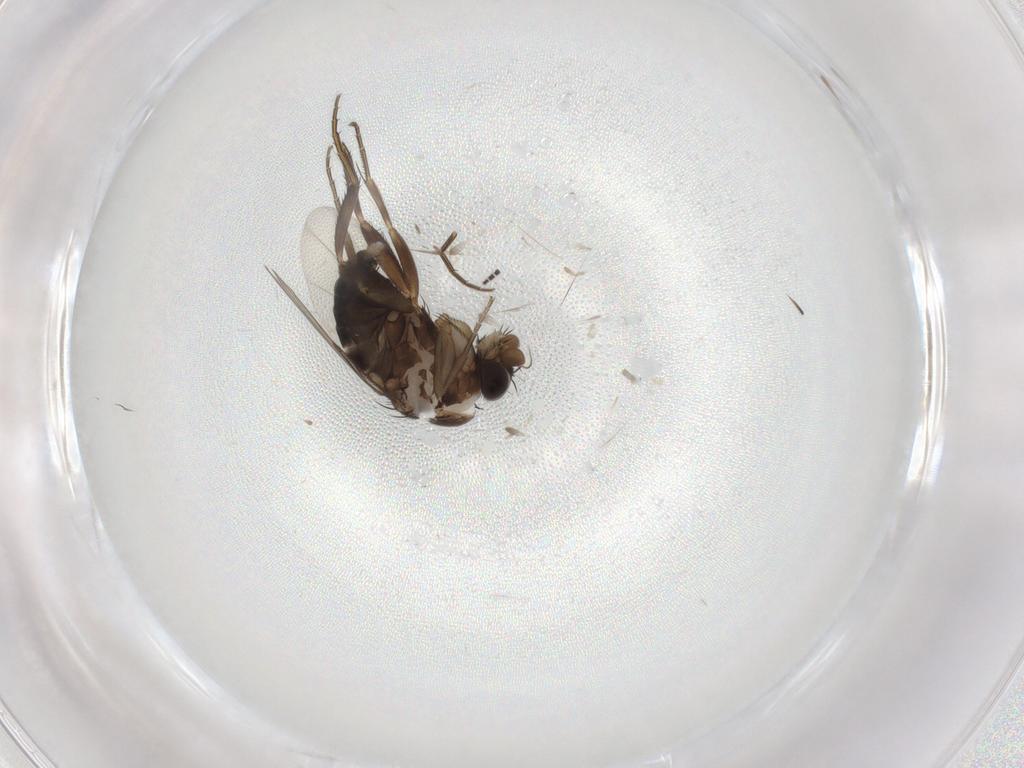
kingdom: Animalia
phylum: Arthropoda
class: Insecta
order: Diptera
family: Phoridae
